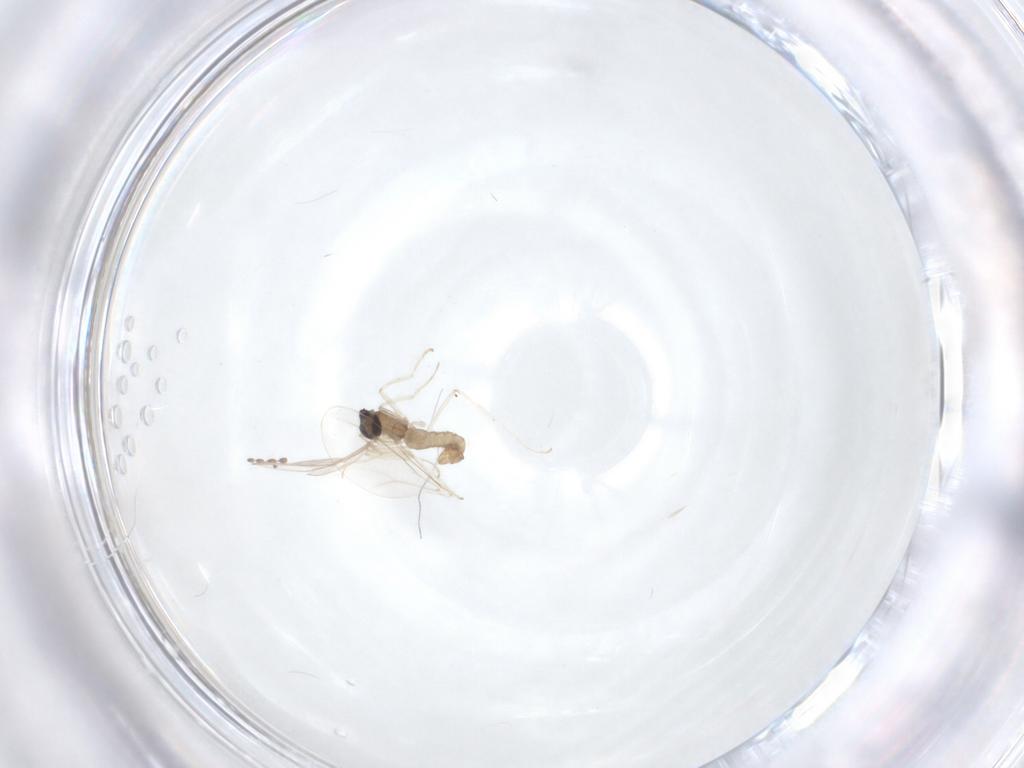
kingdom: Animalia
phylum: Arthropoda
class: Insecta
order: Diptera
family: Cecidomyiidae
